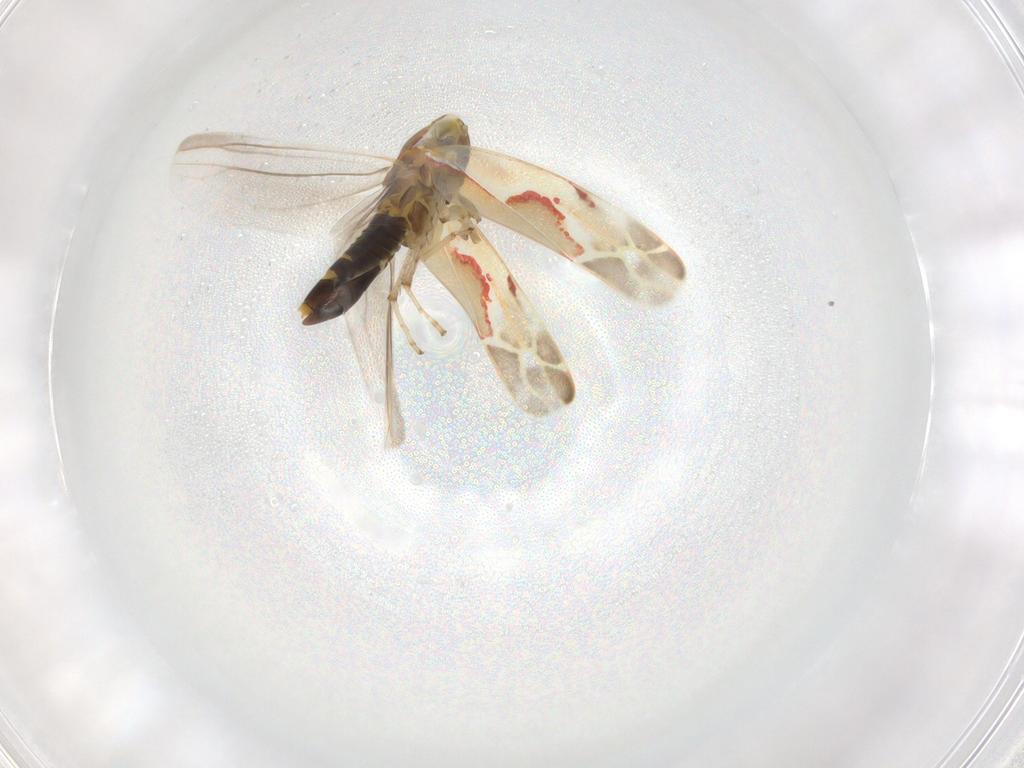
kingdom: Animalia
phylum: Arthropoda
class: Insecta
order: Hemiptera
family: Cicadellidae
